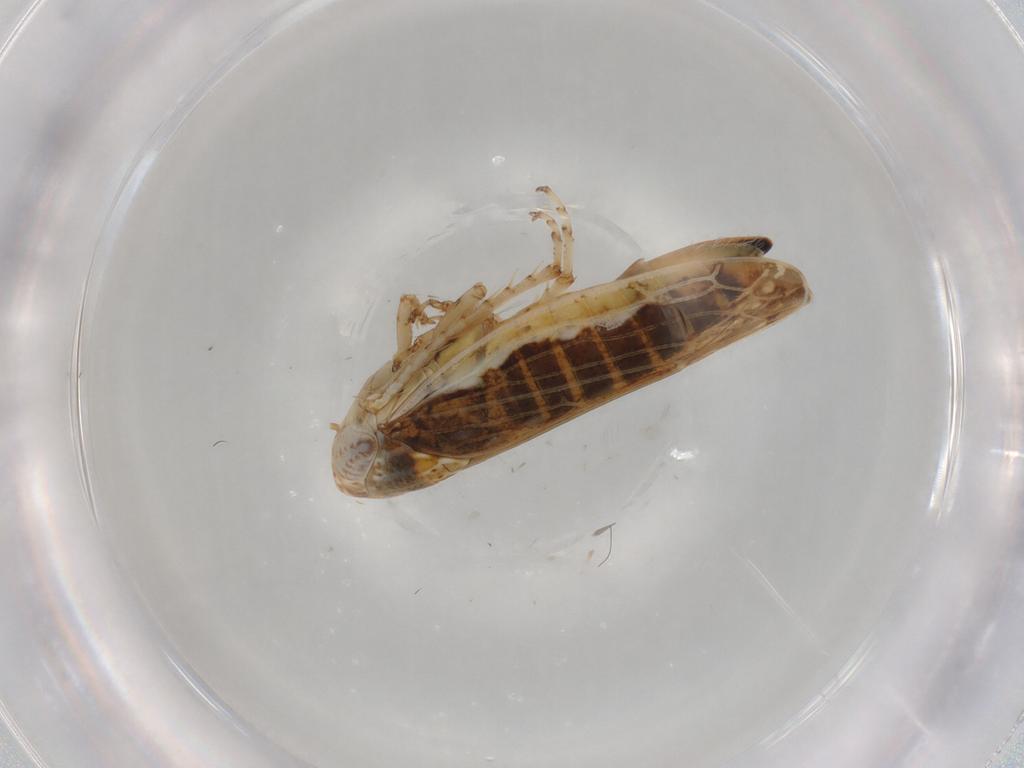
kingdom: Animalia
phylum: Arthropoda
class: Insecta
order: Hemiptera
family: Cicadellidae
